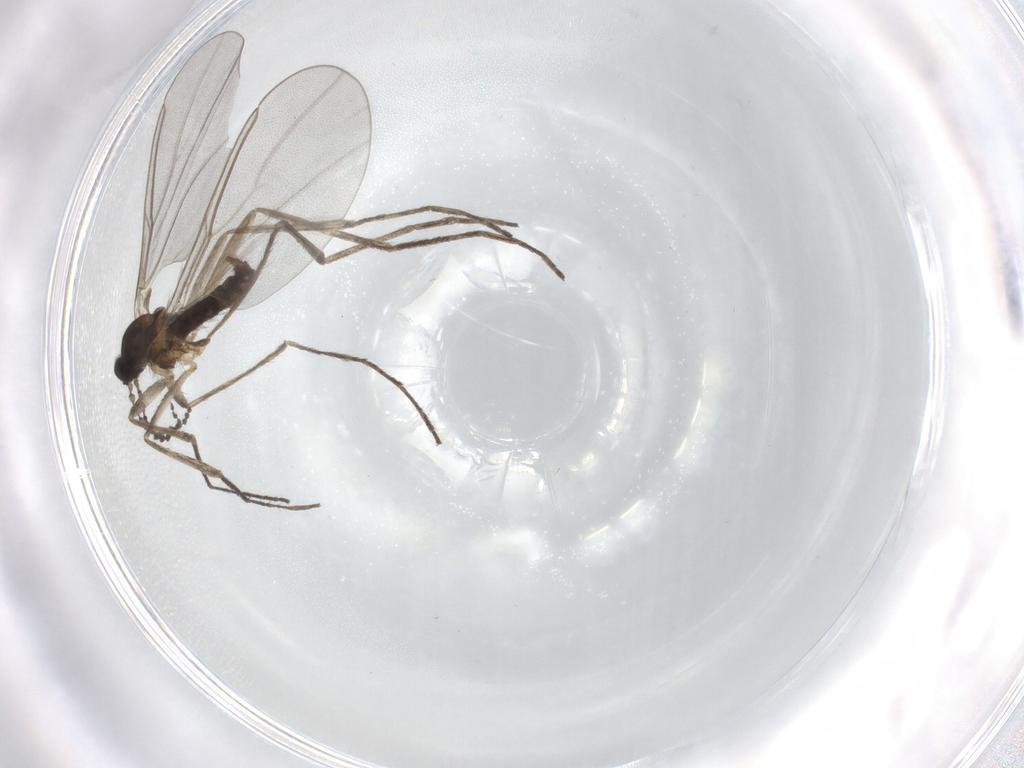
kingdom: Animalia
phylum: Arthropoda
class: Insecta
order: Diptera
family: Cecidomyiidae
